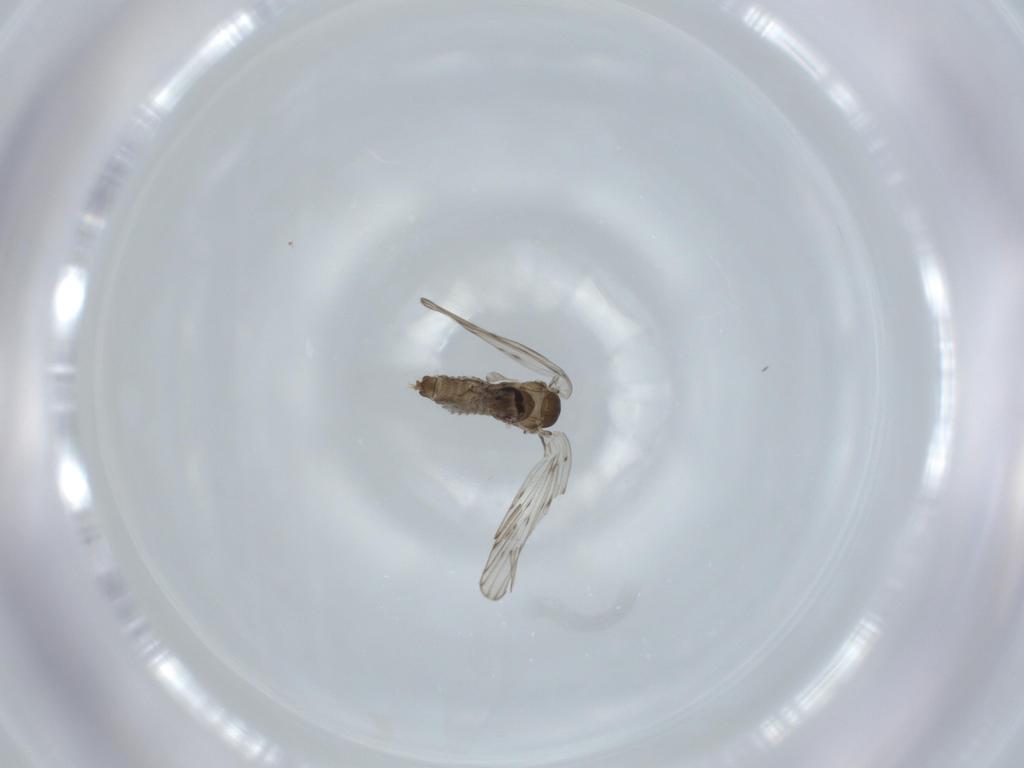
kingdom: Animalia
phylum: Arthropoda
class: Insecta
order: Diptera
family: Psychodidae
